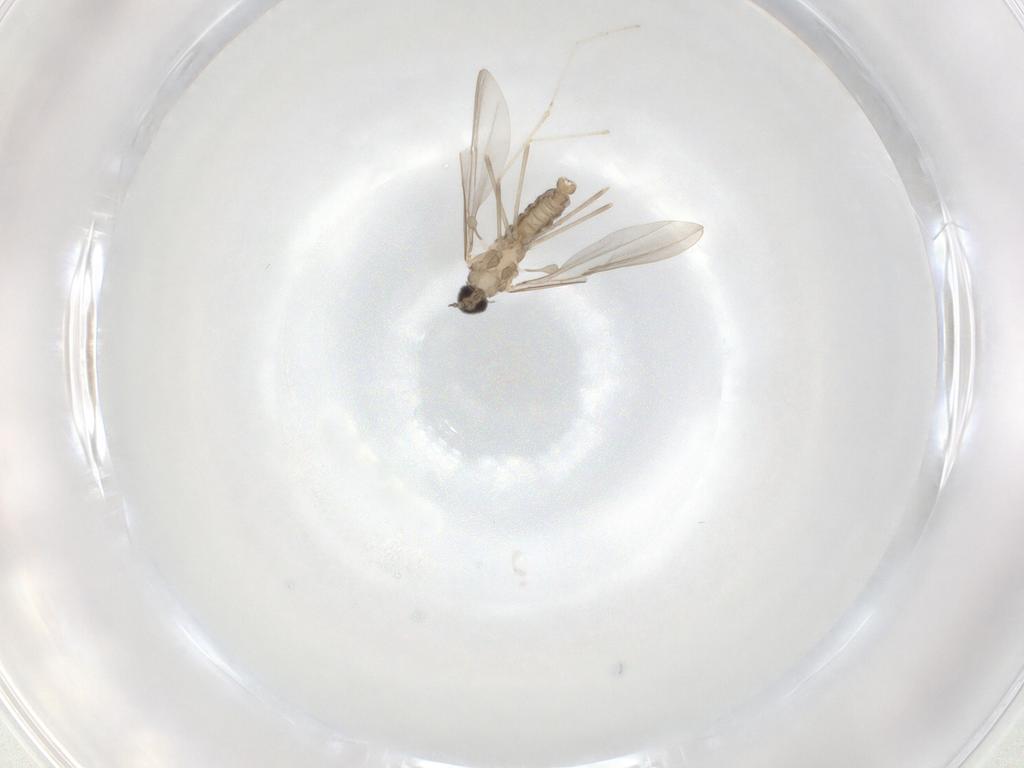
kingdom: Animalia
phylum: Arthropoda
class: Insecta
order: Diptera
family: Cecidomyiidae
